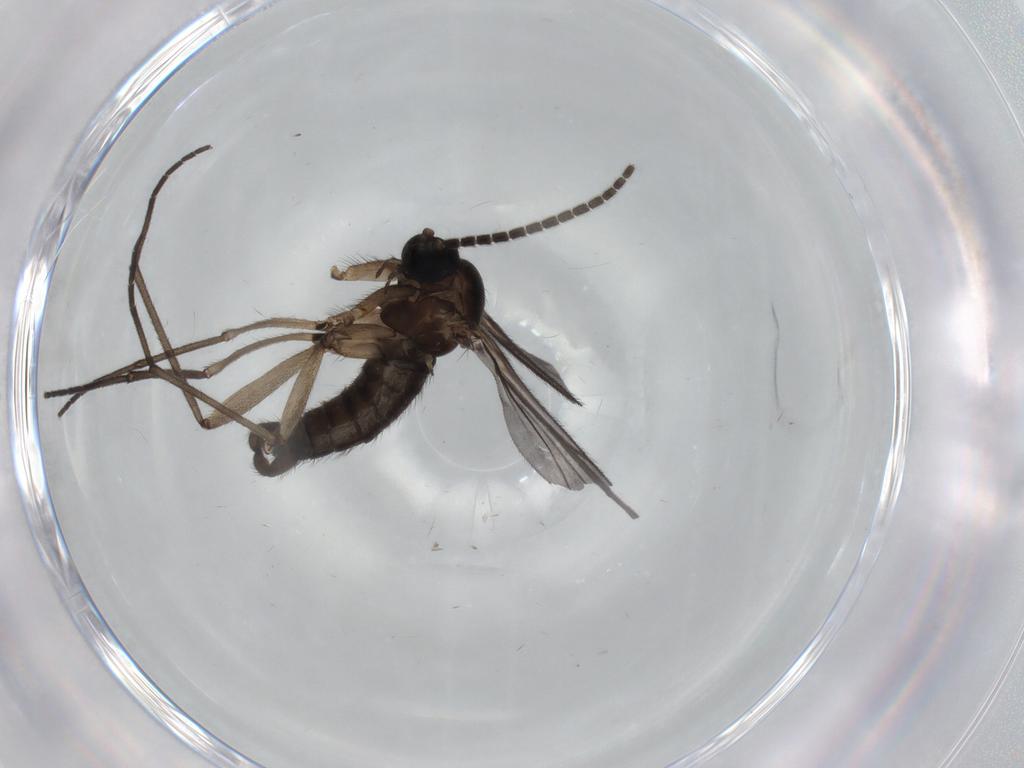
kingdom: Animalia
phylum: Arthropoda
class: Insecta
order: Diptera
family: Sciaridae
